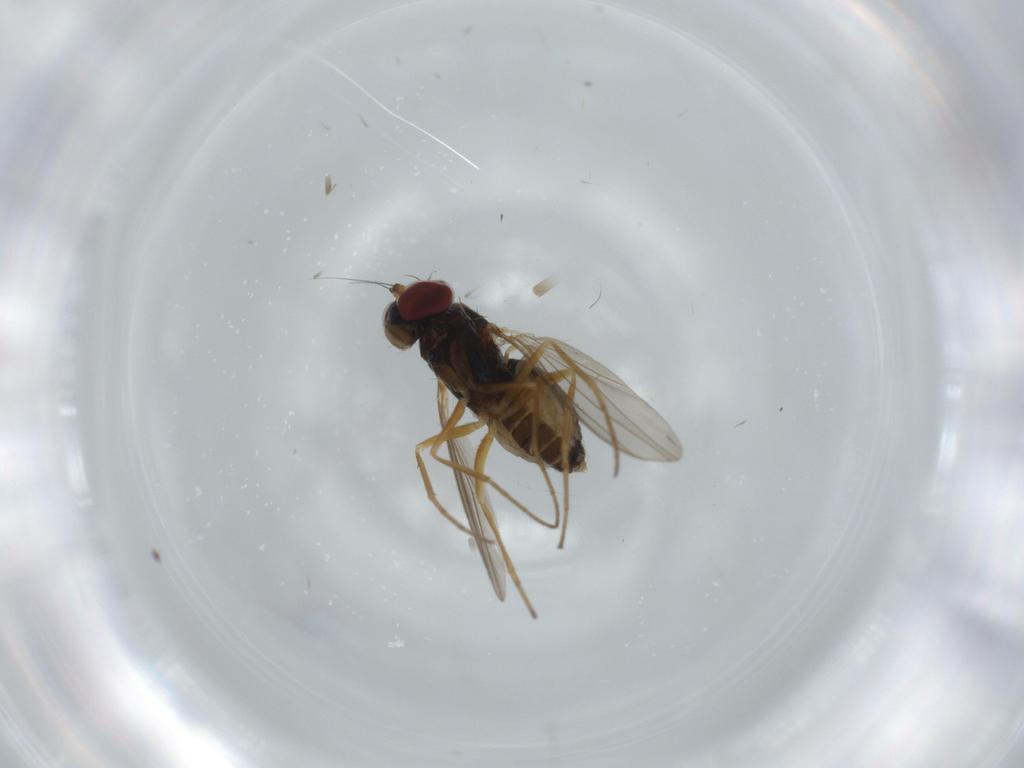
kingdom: Animalia
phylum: Arthropoda
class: Insecta
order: Diptera
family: Dolichopodidae
